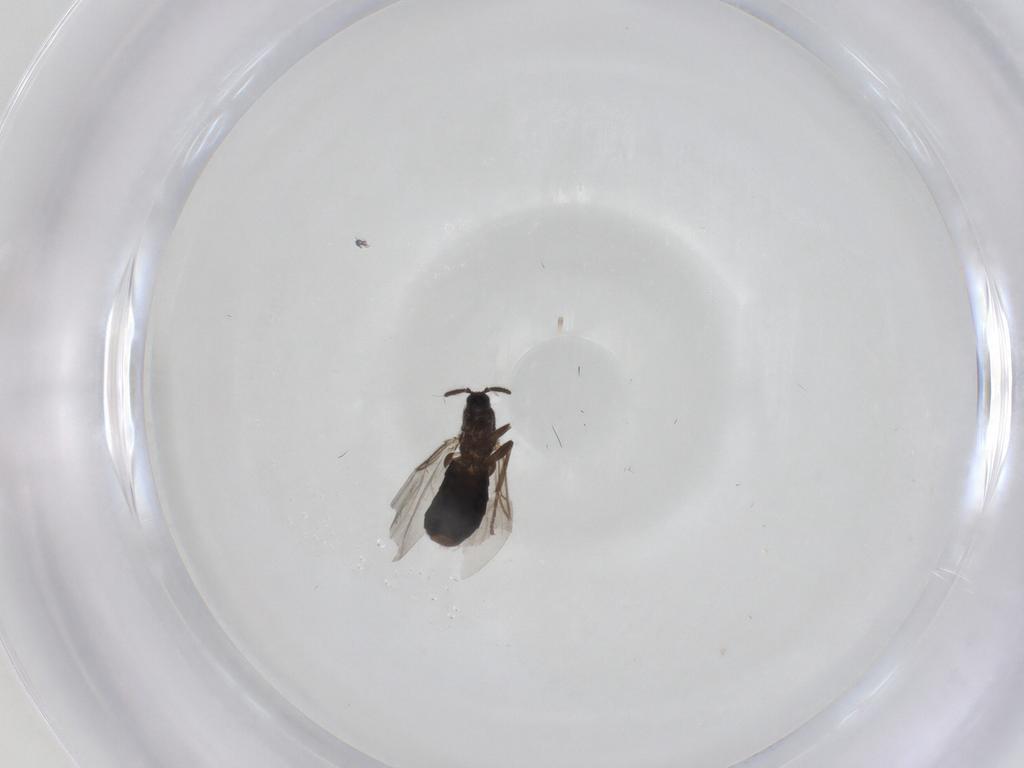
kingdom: Animalia
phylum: Arthropoda
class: Insecta
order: Diptera
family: Scatopsidae
